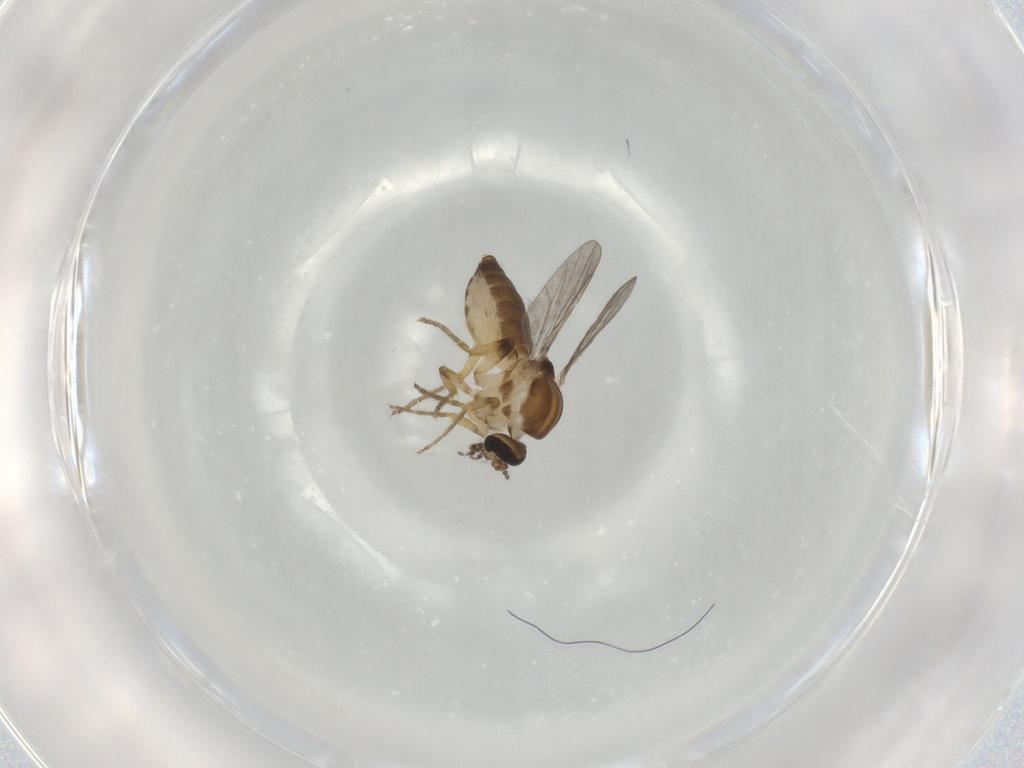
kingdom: Animalia
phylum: Arthropoda
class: Insecta
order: Diptera
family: Ceratopogonidae
